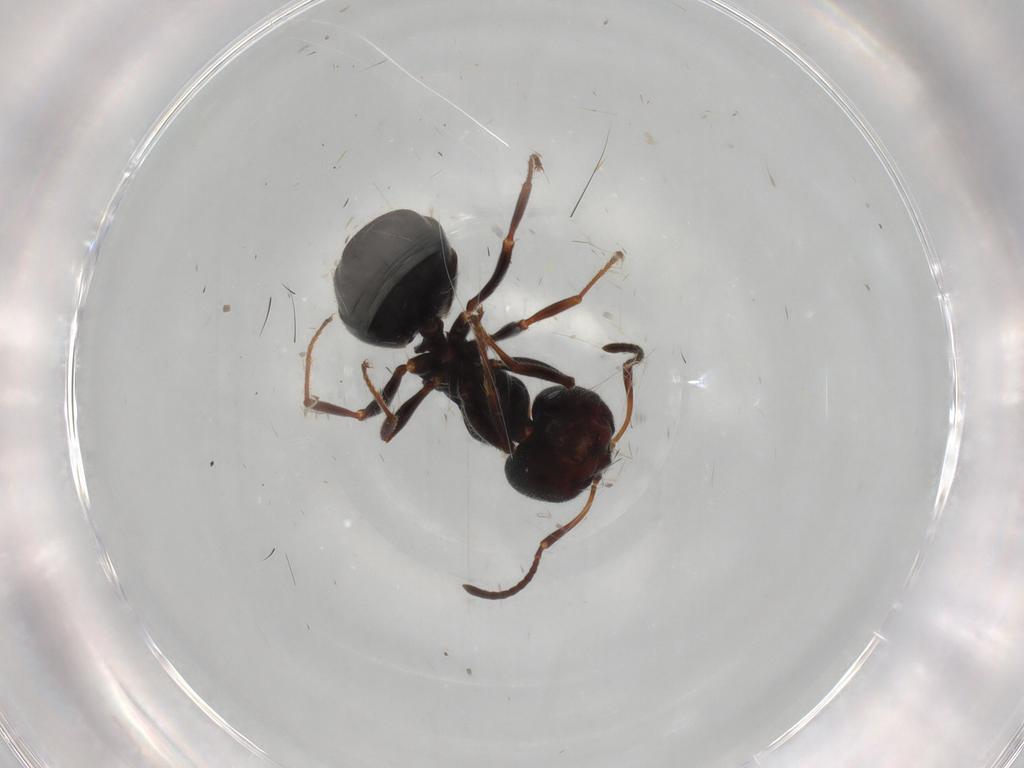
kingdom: Animalia
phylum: Arthropoda
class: Insecta
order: Hymenoptera
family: Formicidae
